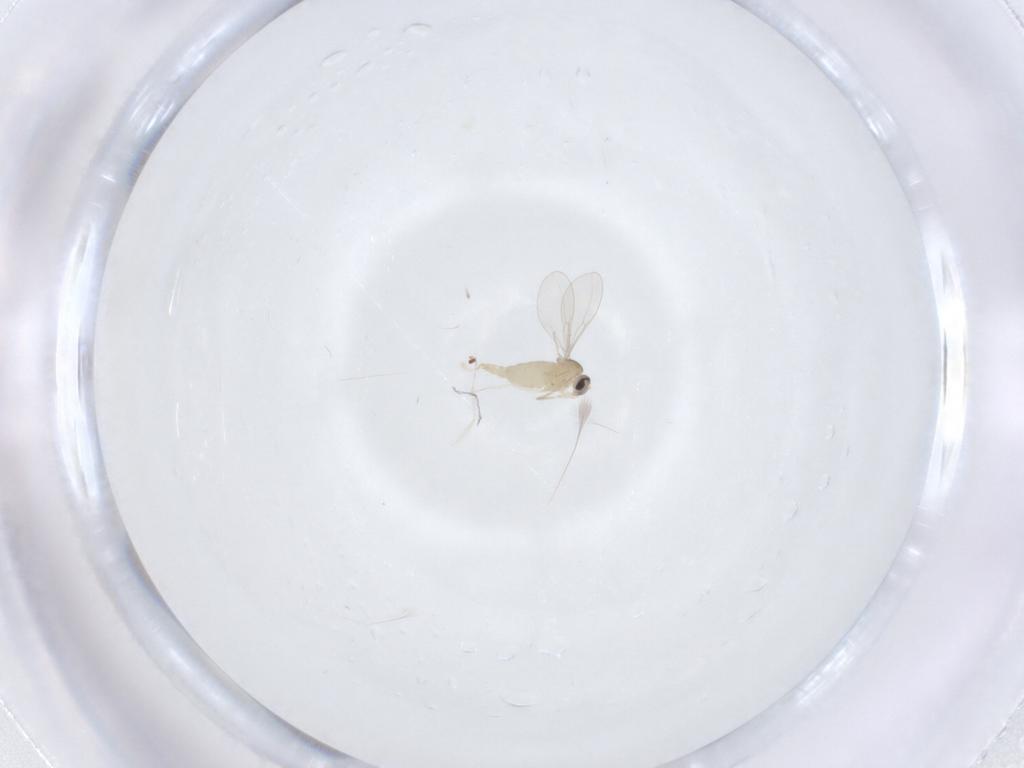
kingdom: Animalia
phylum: Arthropoda
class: Insecta
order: Diptera
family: Cecidomyiidae
